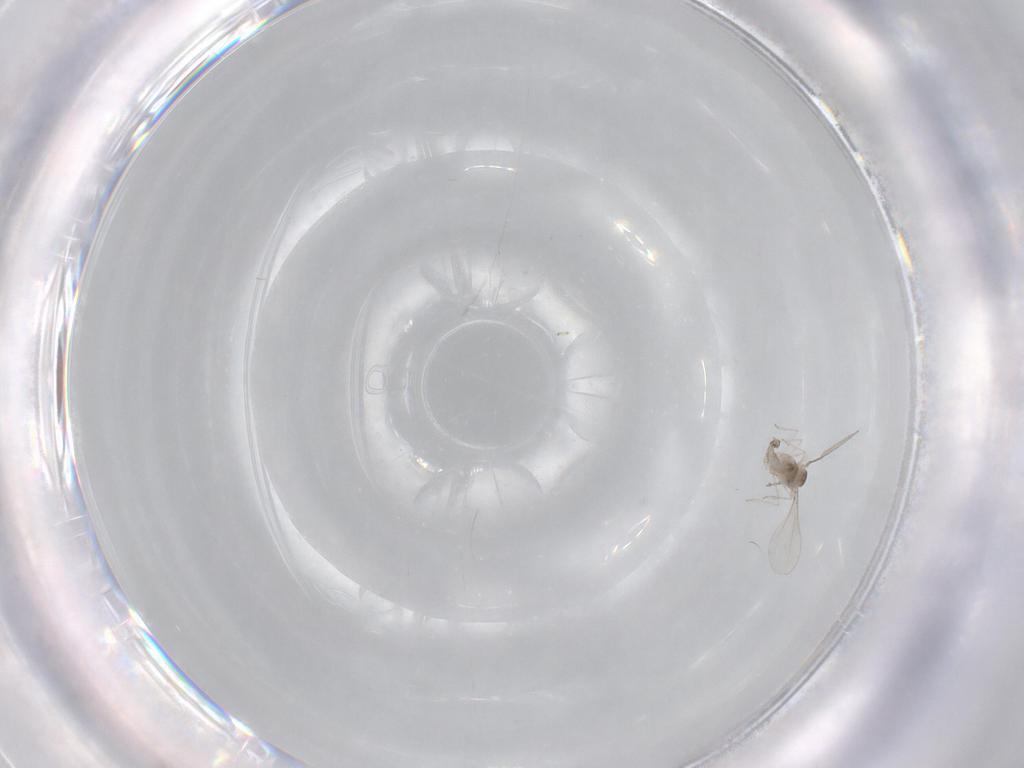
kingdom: Animalia
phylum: Arthropoda
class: Insecta
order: Diptera
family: Cecidomyiidae
